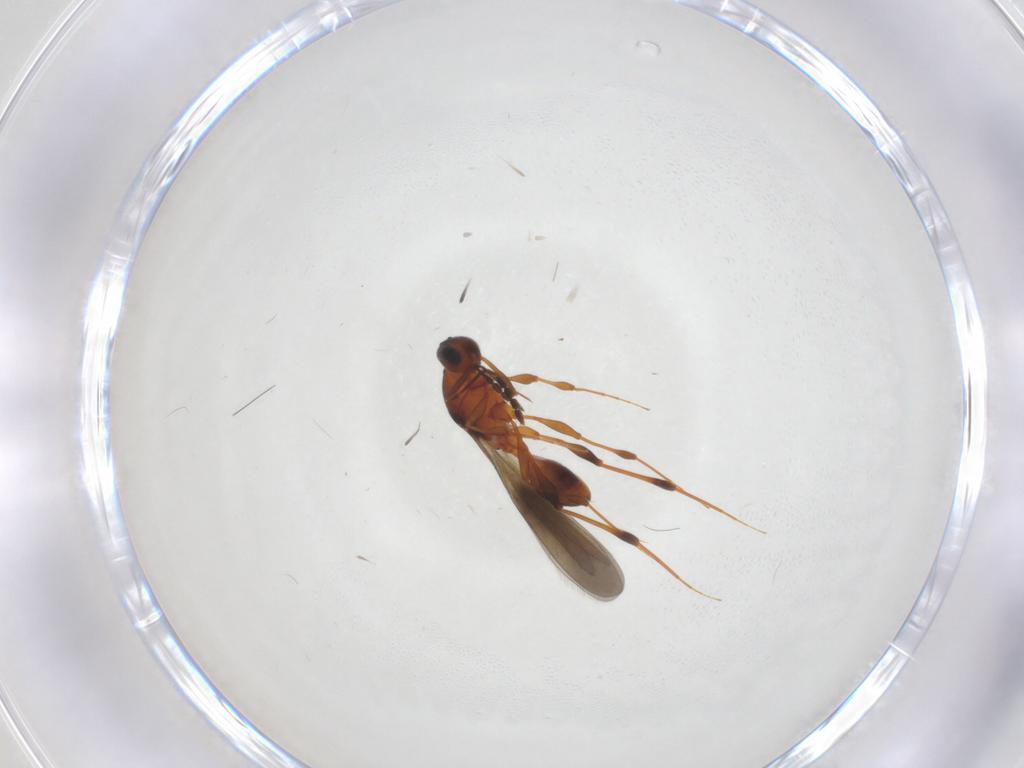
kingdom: Animalia
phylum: Arthropoda
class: Insecta
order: Hymenoptera
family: Platygastridae
